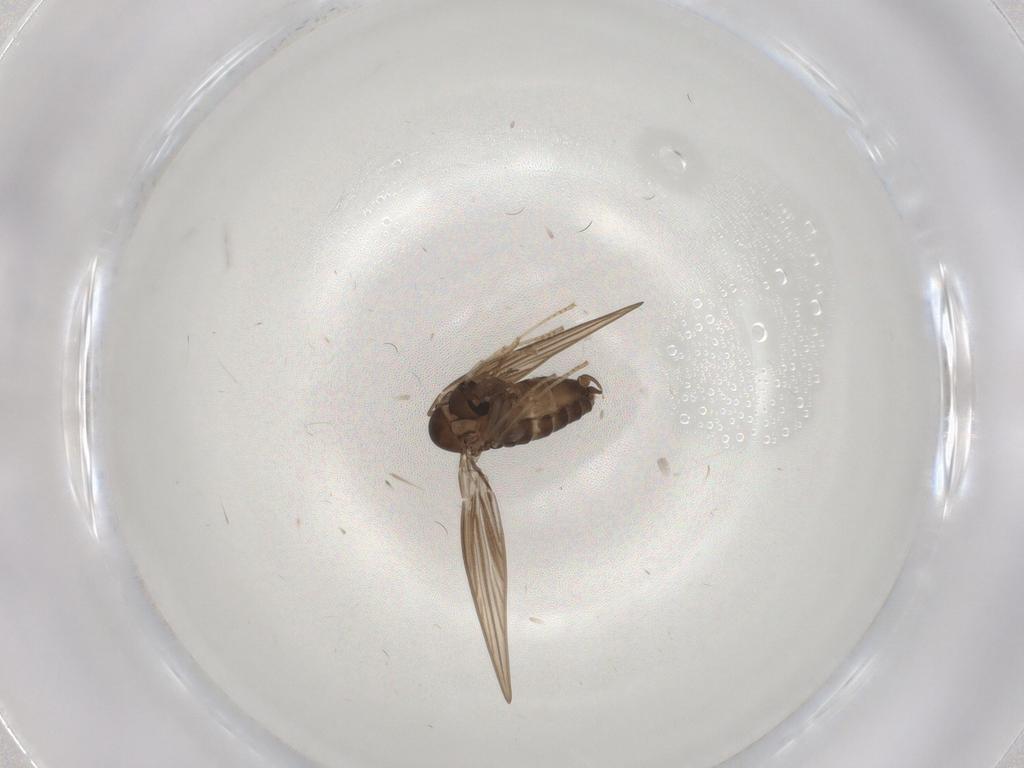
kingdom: Animalia
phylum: Arthropoda
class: Insecta
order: Diptera
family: Psychodidae
